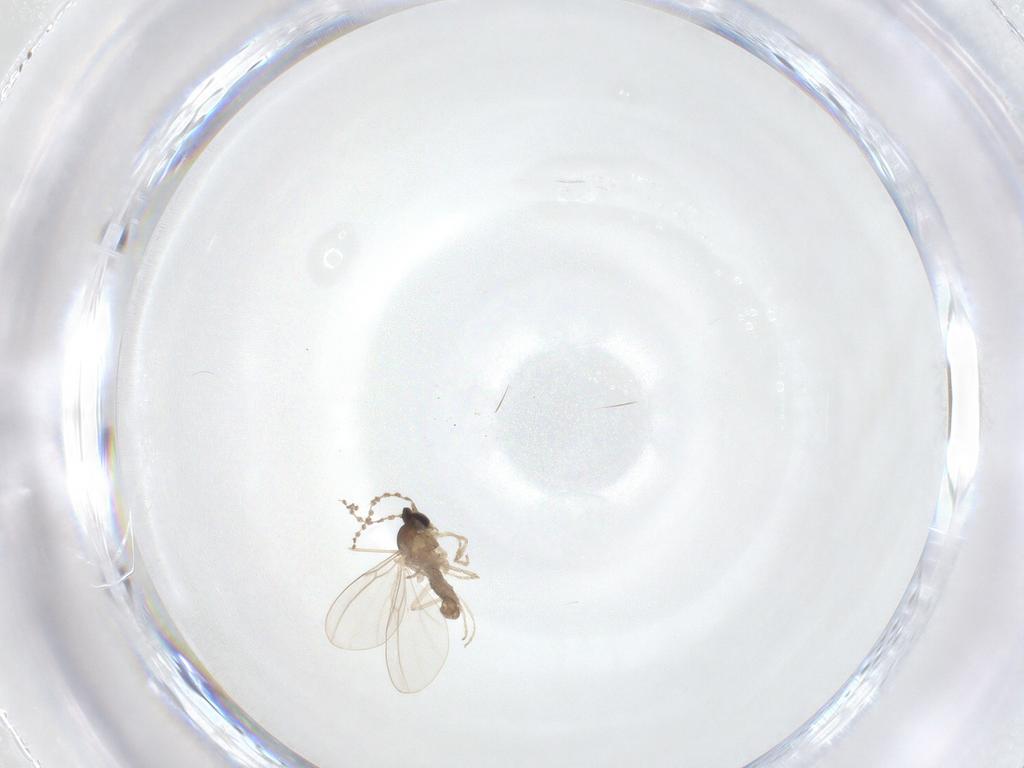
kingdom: Animalia
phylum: Arthropoda
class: Insecta
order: Diptera
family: Cecidomyiidae
